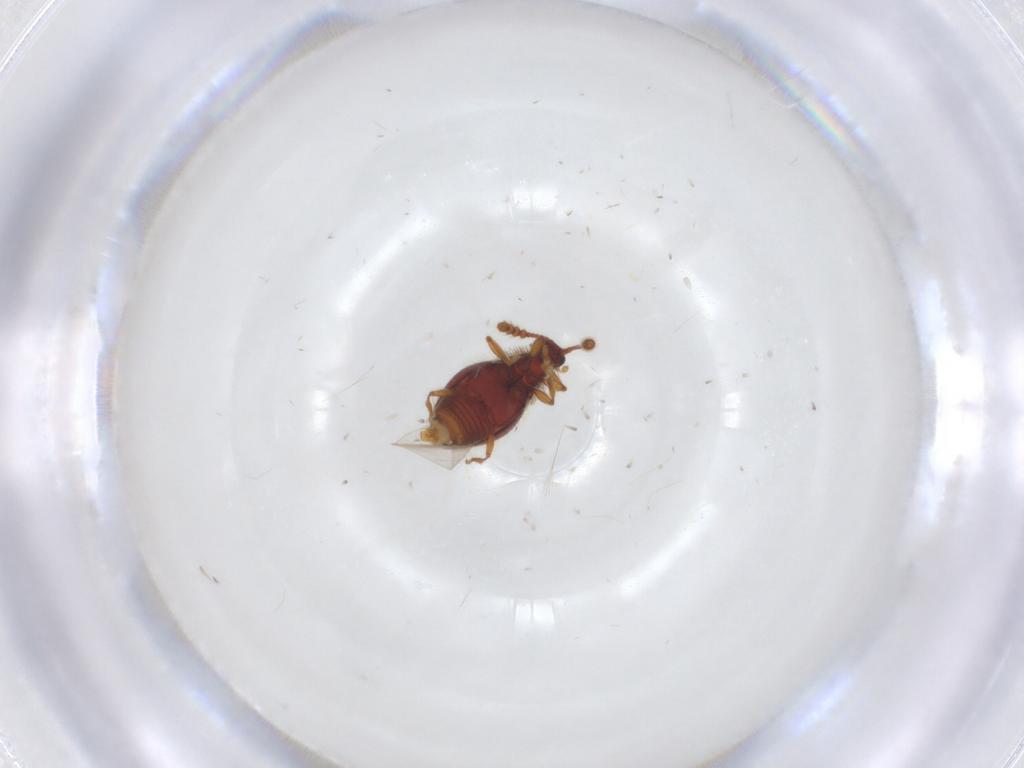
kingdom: Animalia
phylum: Arthropoda
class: Insecta
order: Coleoptera
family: Staphylinidae
